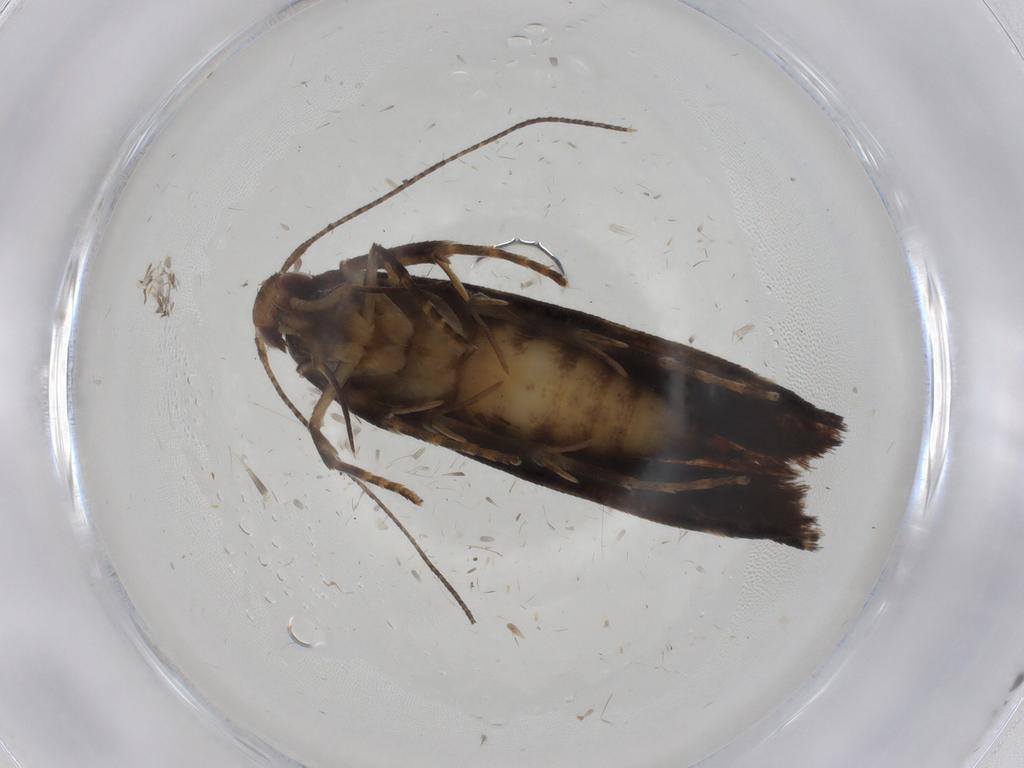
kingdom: Animalia
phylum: Arthropoda
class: Insecta
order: Lepidoptera
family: Gelechiidae
